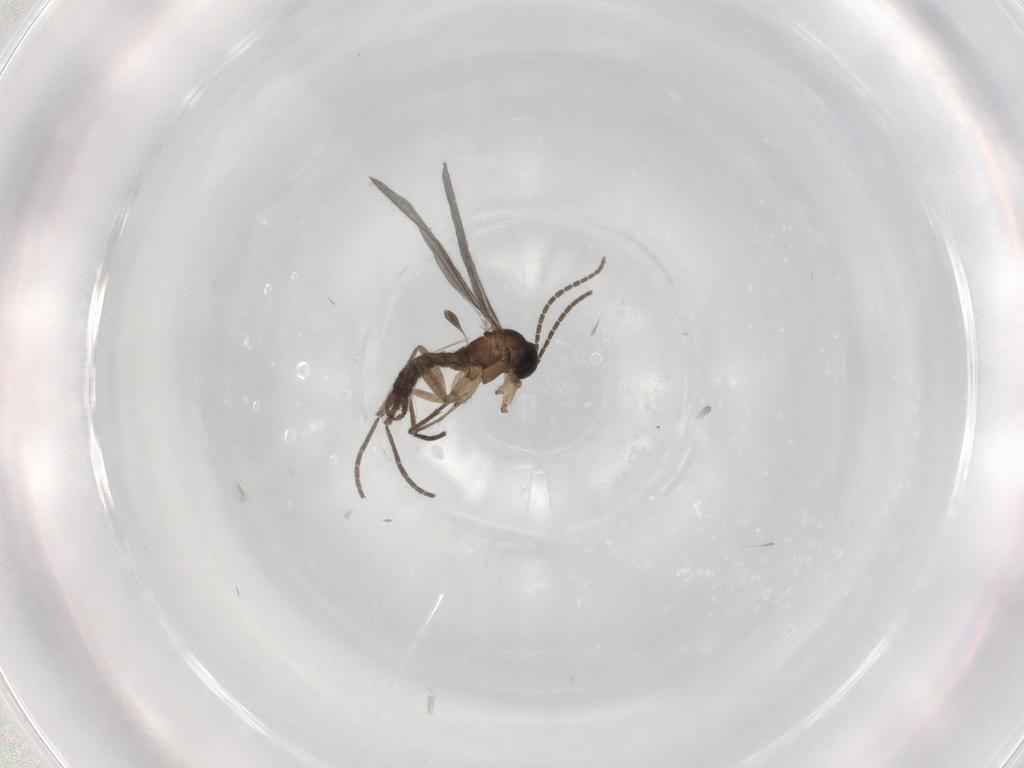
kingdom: Animalia
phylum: Arthropoda
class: Insecta
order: Diptera
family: Sciaridae
